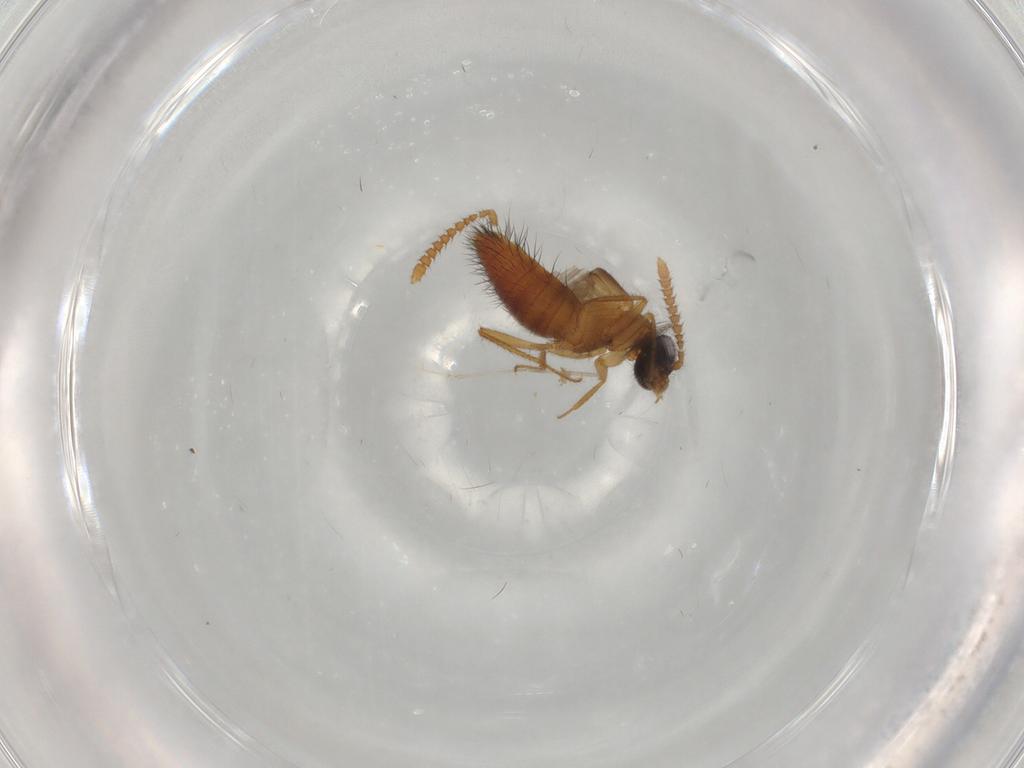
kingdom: Animalia
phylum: Arthropoda
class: Insecta
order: Coleoptera
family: Staphylinidae
